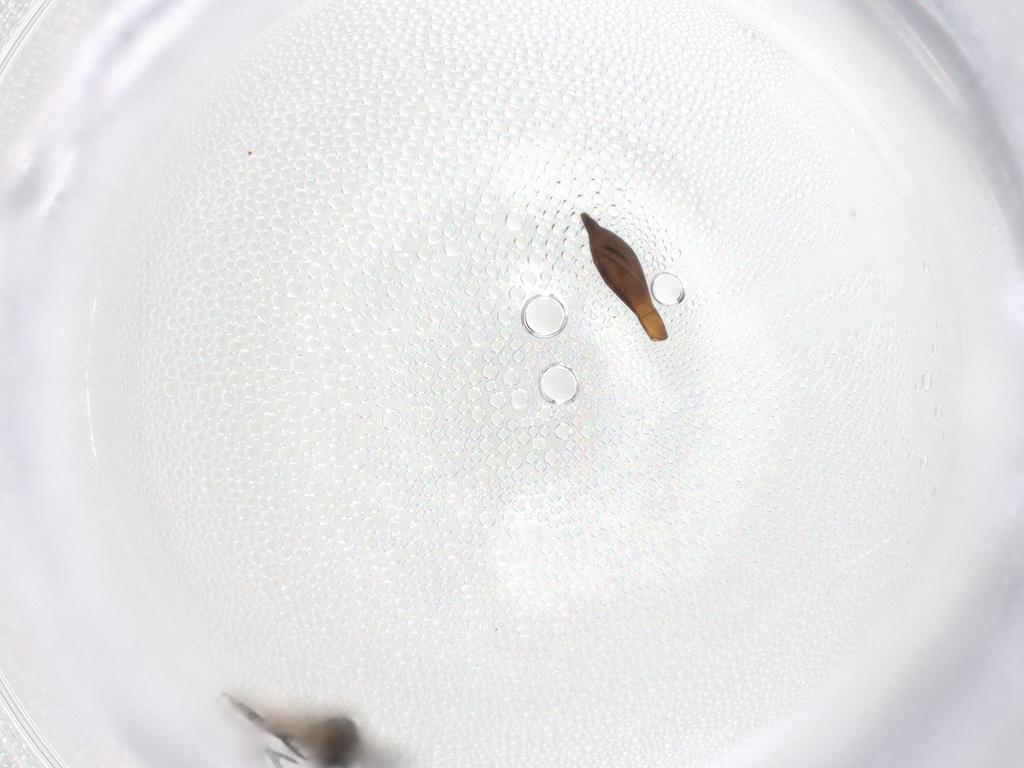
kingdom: Animalia
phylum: Arthropoda
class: Insecta
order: Hymenoptera
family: Scelionidae
